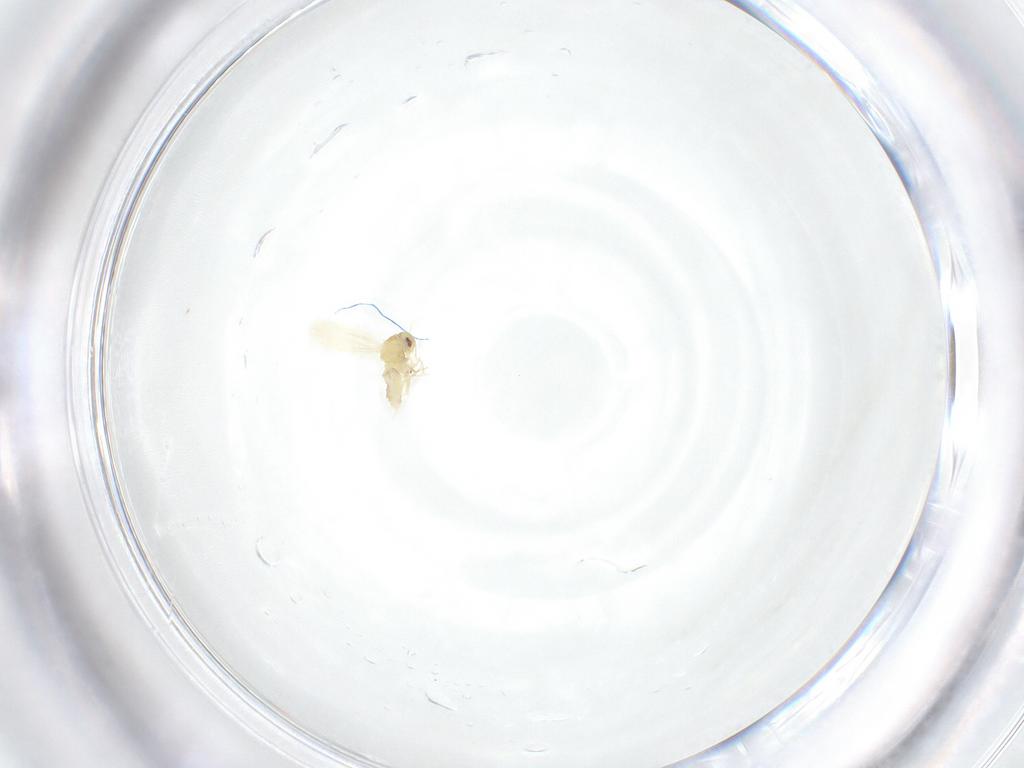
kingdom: Animalia
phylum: Arthropoda
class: Insecta
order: Hemiptera
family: Aleyrodidae
